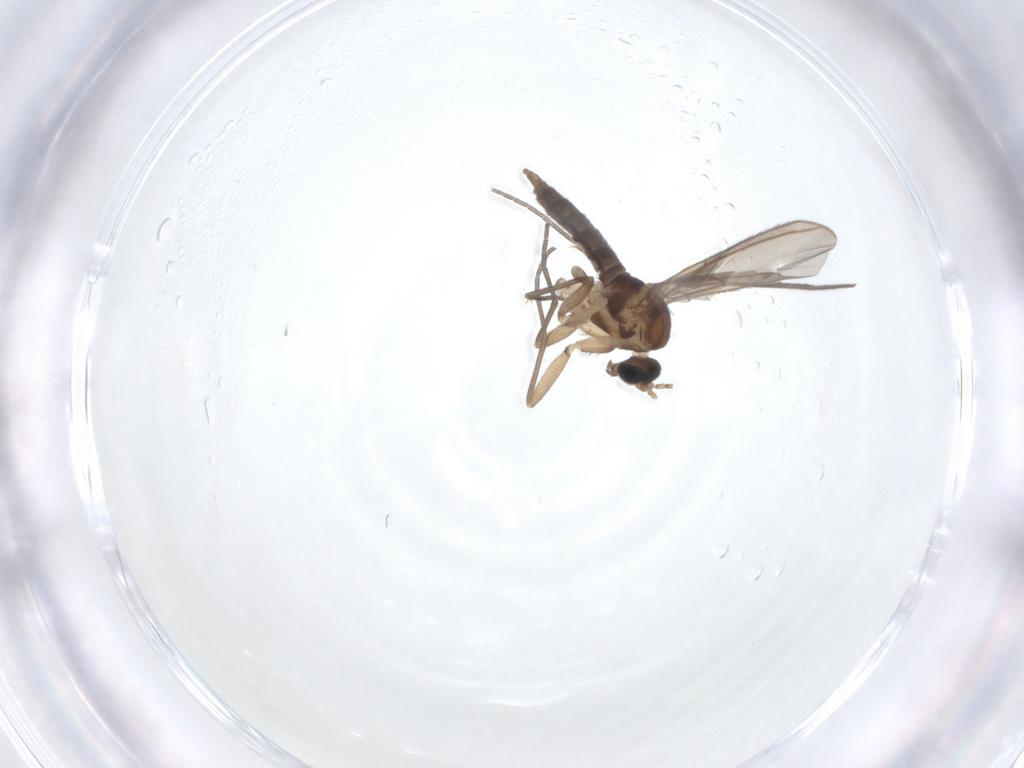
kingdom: Animalia
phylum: Arthropoda
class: Insecta
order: Diptera
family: Sciaridae
